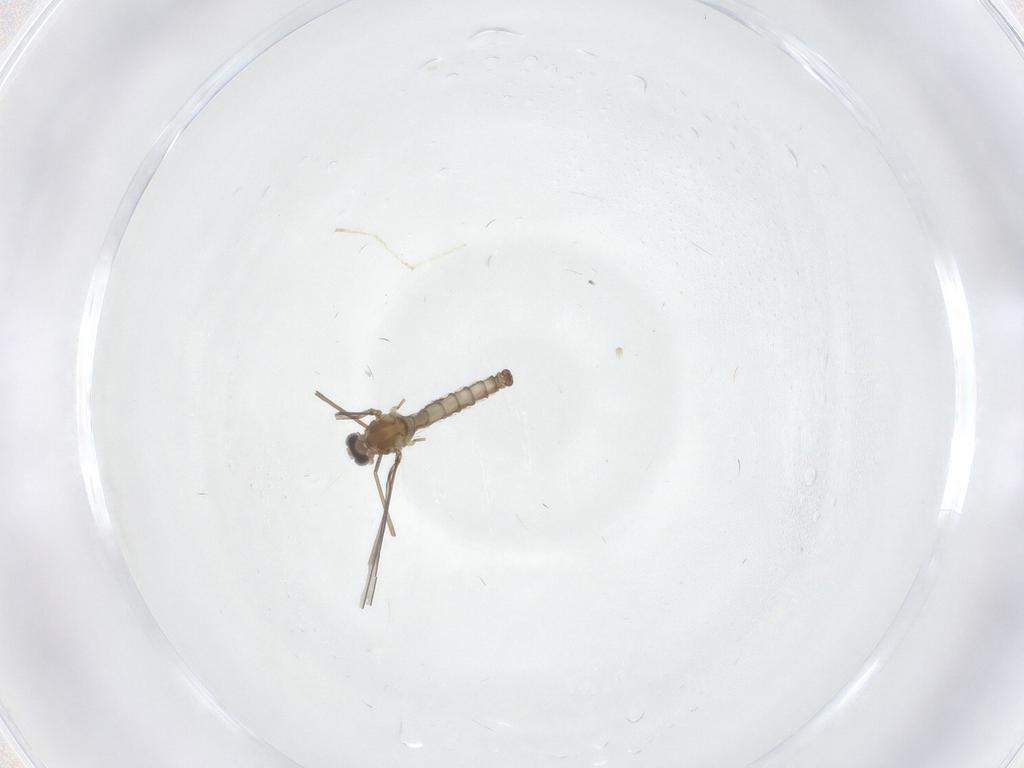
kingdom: Animalia
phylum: Arthropoda
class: Insecta
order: Diptera
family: Cecidomyiidae
